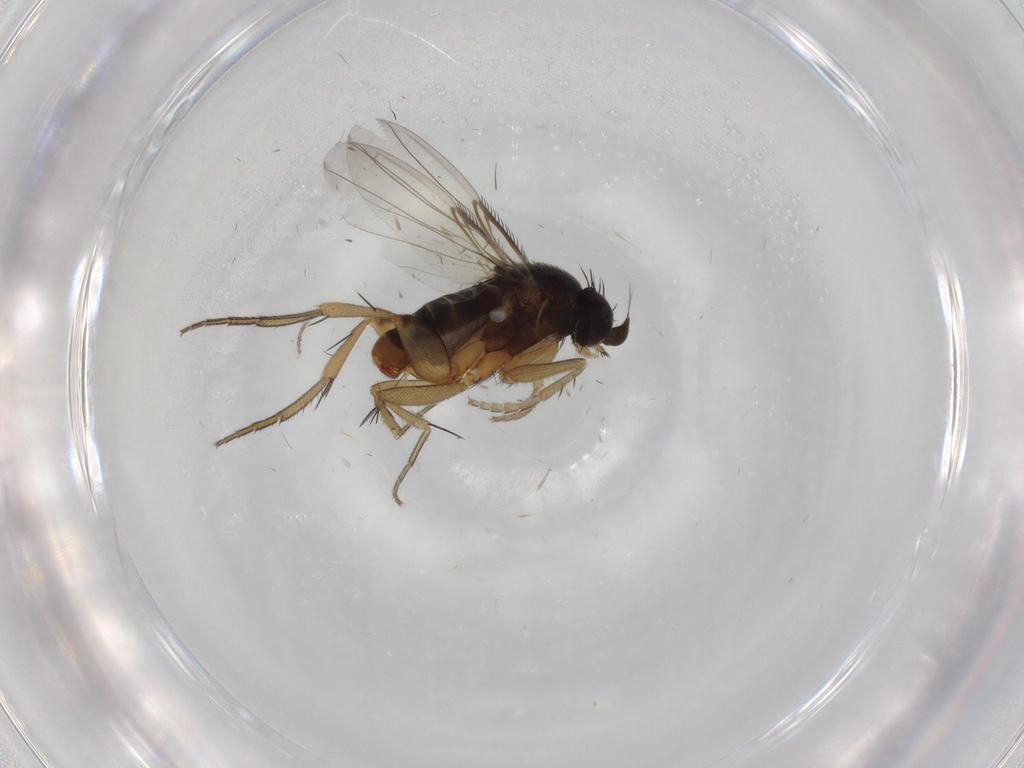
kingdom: Animalia
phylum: Arthropoda
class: Insecta
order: Diptera
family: Phoridae
